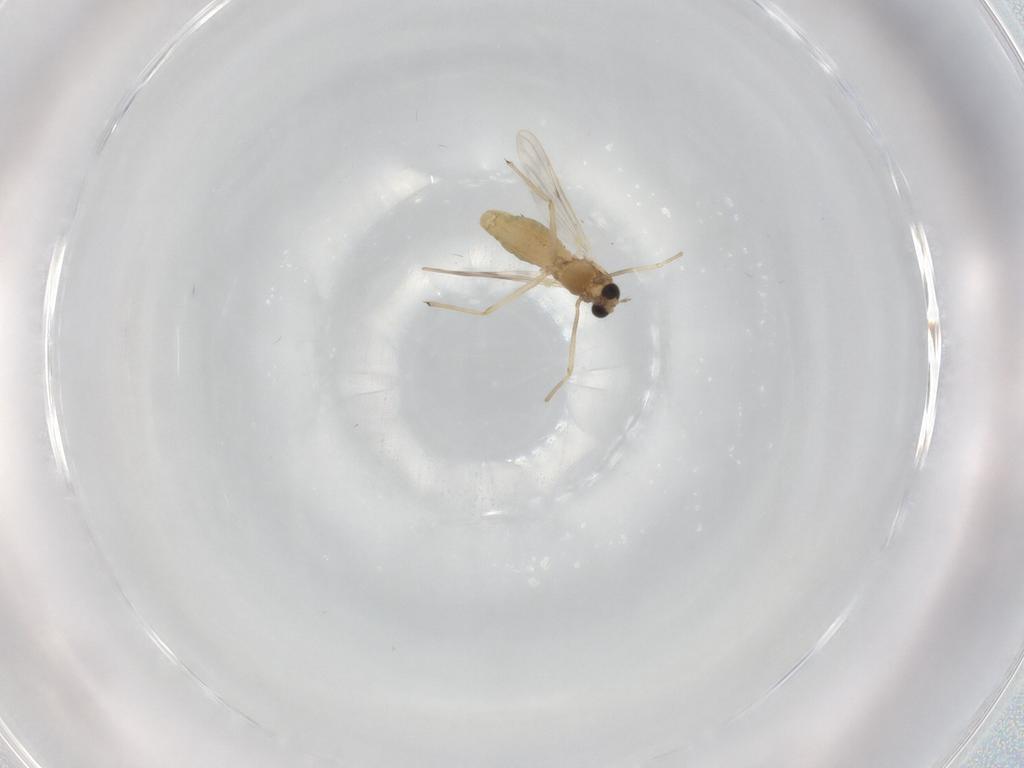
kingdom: Animalia
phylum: Arthropoda
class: Insecta
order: Diptera
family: Chironomidae
